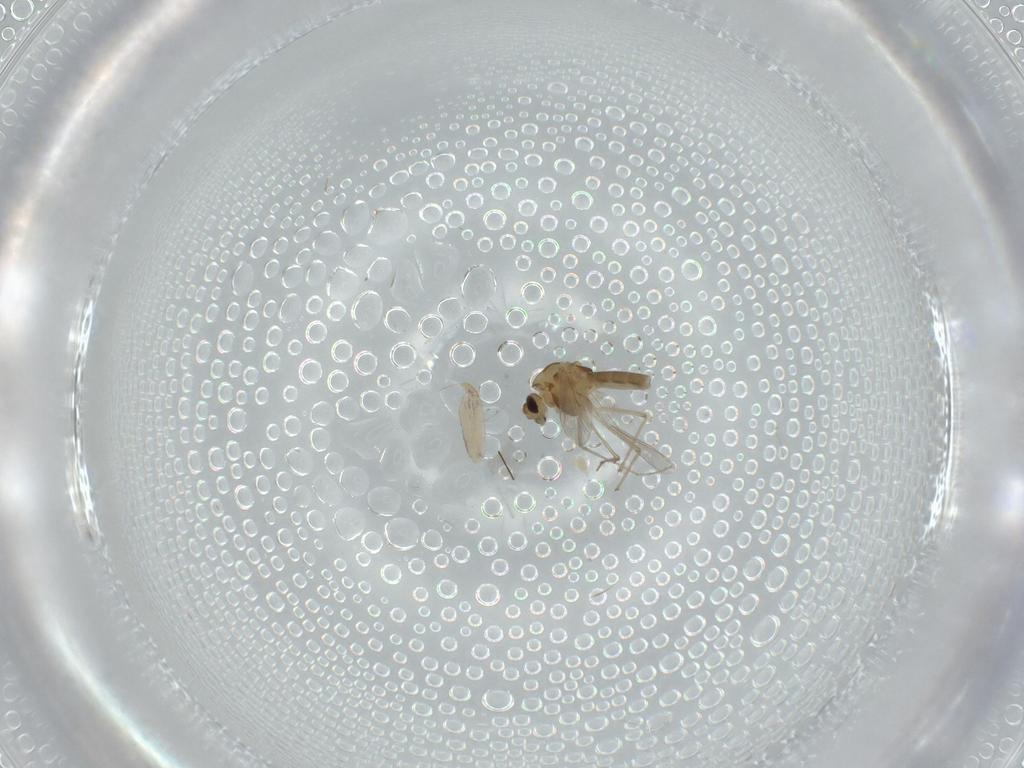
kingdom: Animalia
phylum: Arthropoda
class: Insecta
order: Diptera
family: Chironomidae
